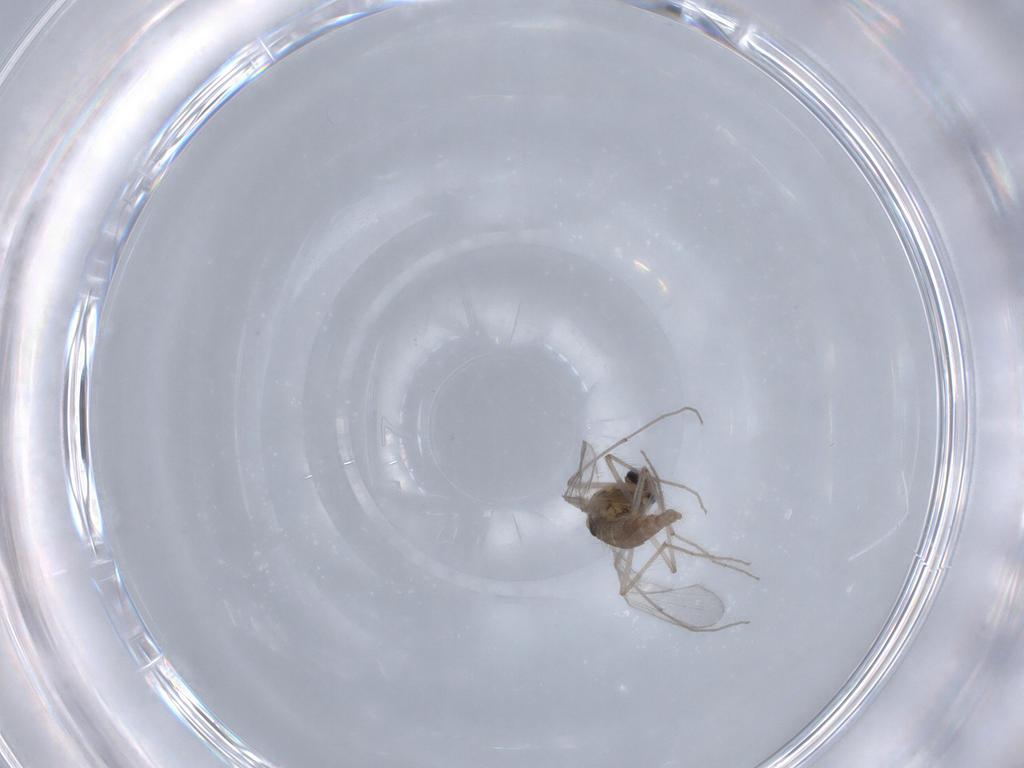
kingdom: Animalia
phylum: Arthropoda
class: Insecta
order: Diptera
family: Chironomidae
